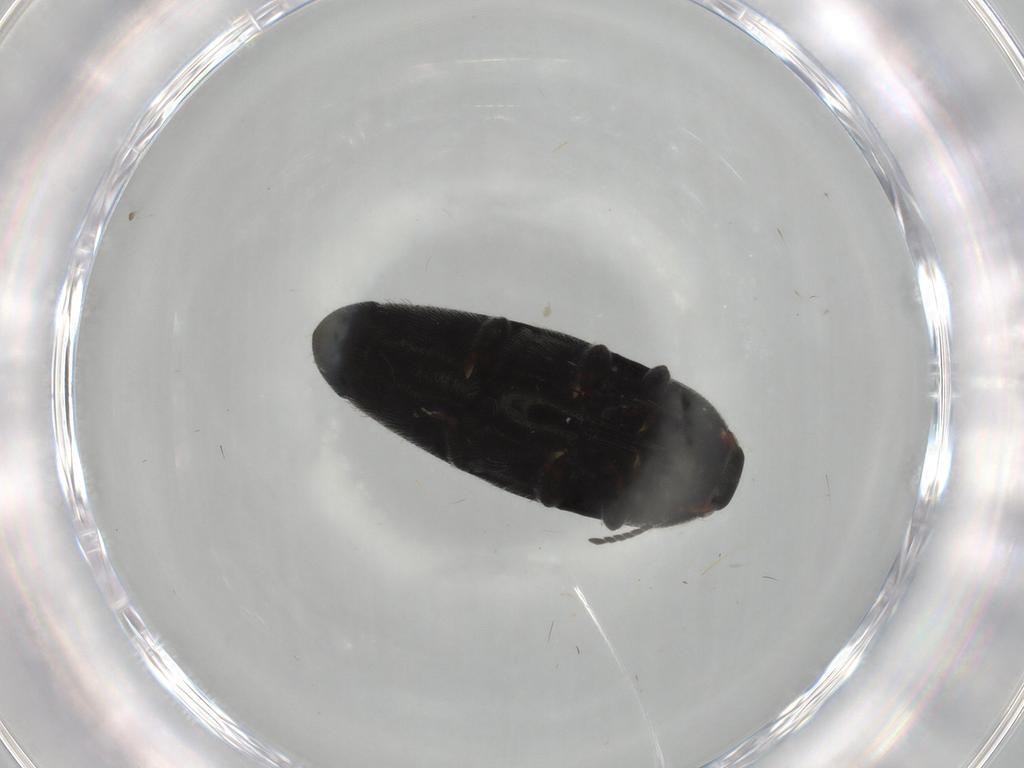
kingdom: Animalia
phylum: Arthropoda
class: Insecta
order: Coleoptera
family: Elateridae
